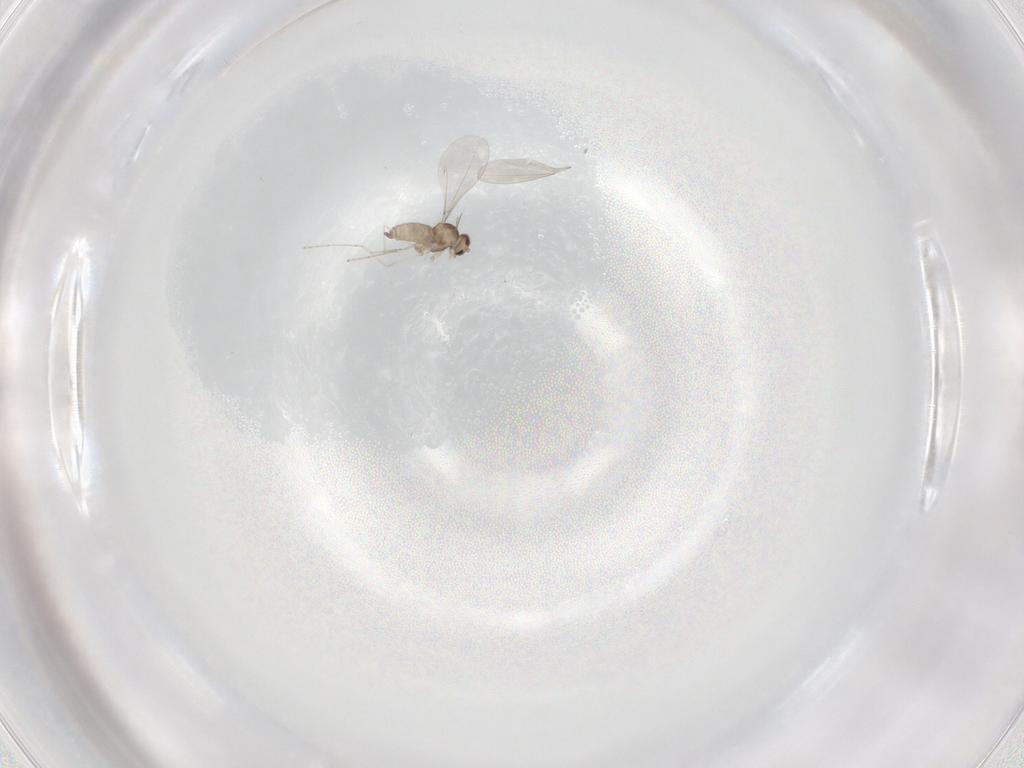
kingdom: Animalia
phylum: Arthropoda
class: Insecta
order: Diptera
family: Cecidomyiidae
